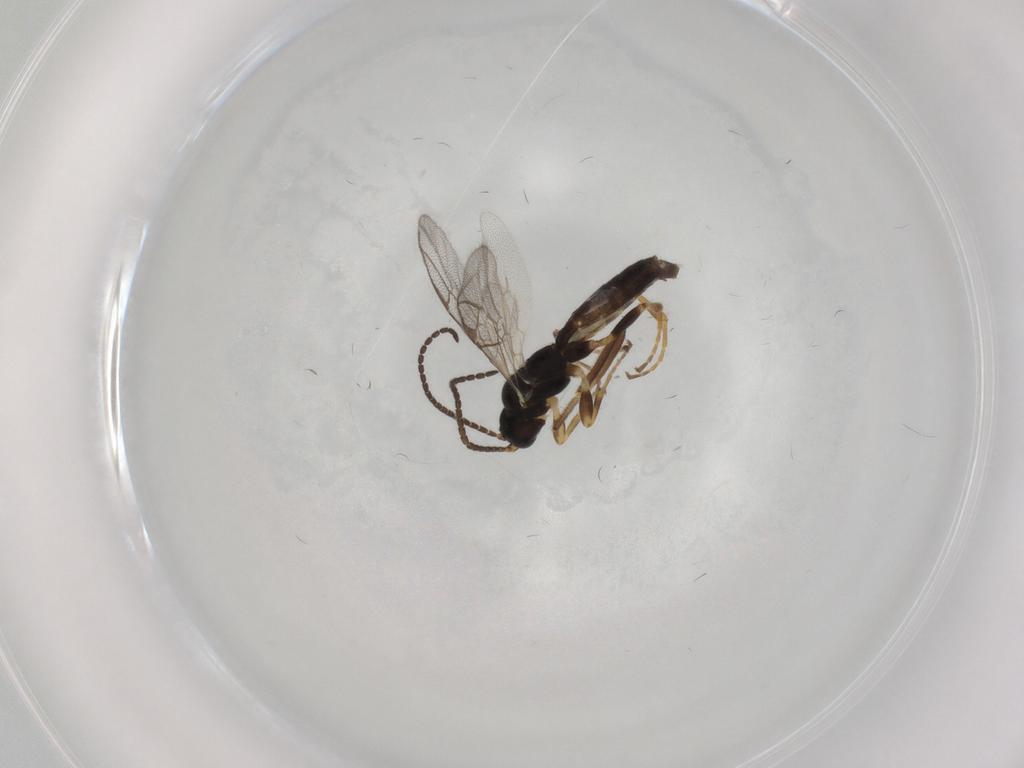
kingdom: Animalia
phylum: Arthropoda
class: Insecta
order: Hymenoptera
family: Ichneumonidae
